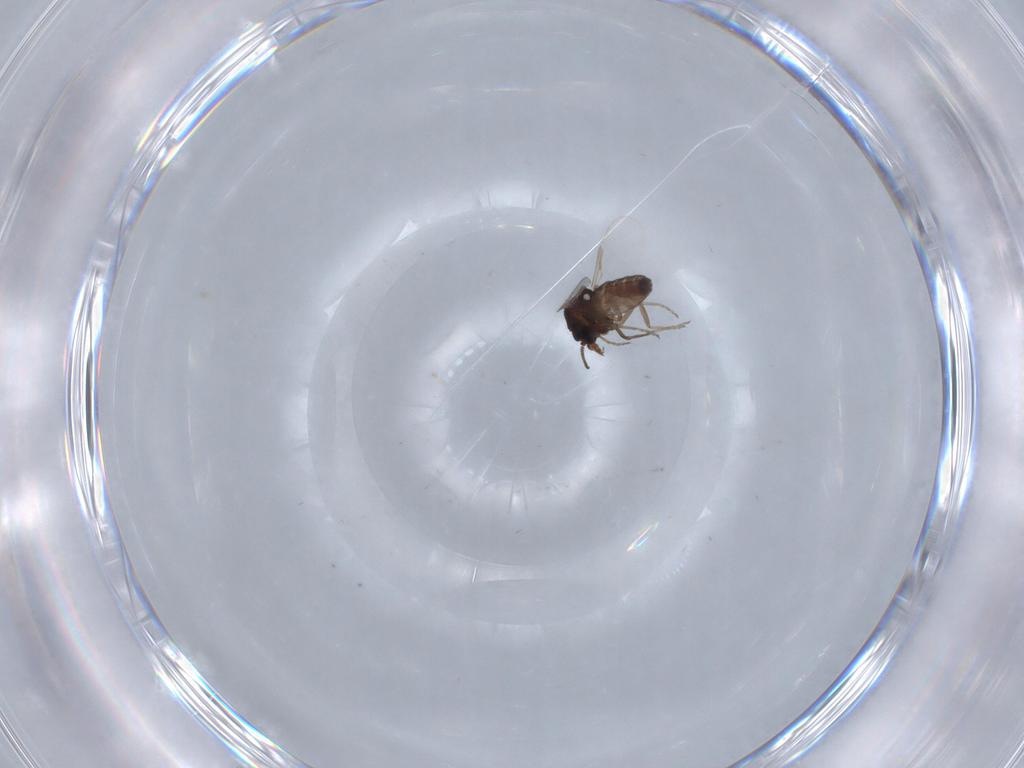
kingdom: Animalia
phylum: Arthropoda
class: Insecta
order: Diptera
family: Ceratopogonidae
